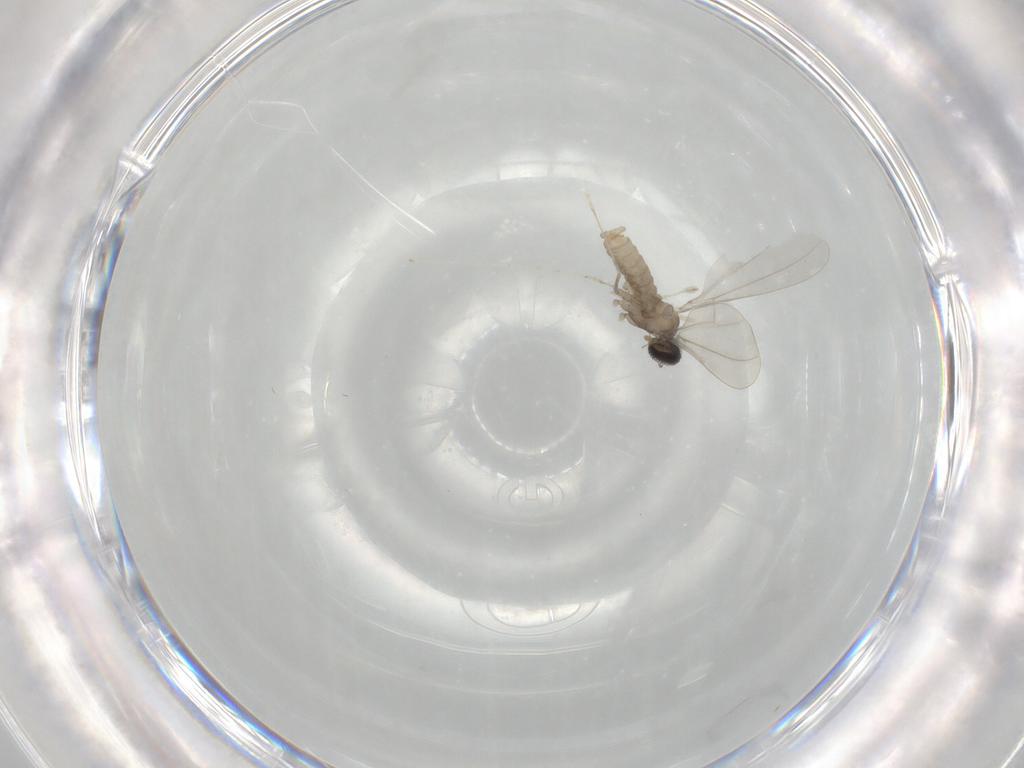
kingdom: Animalia
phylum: Arthropoda
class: Insecta
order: Diptera
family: Cecidomyiidae
